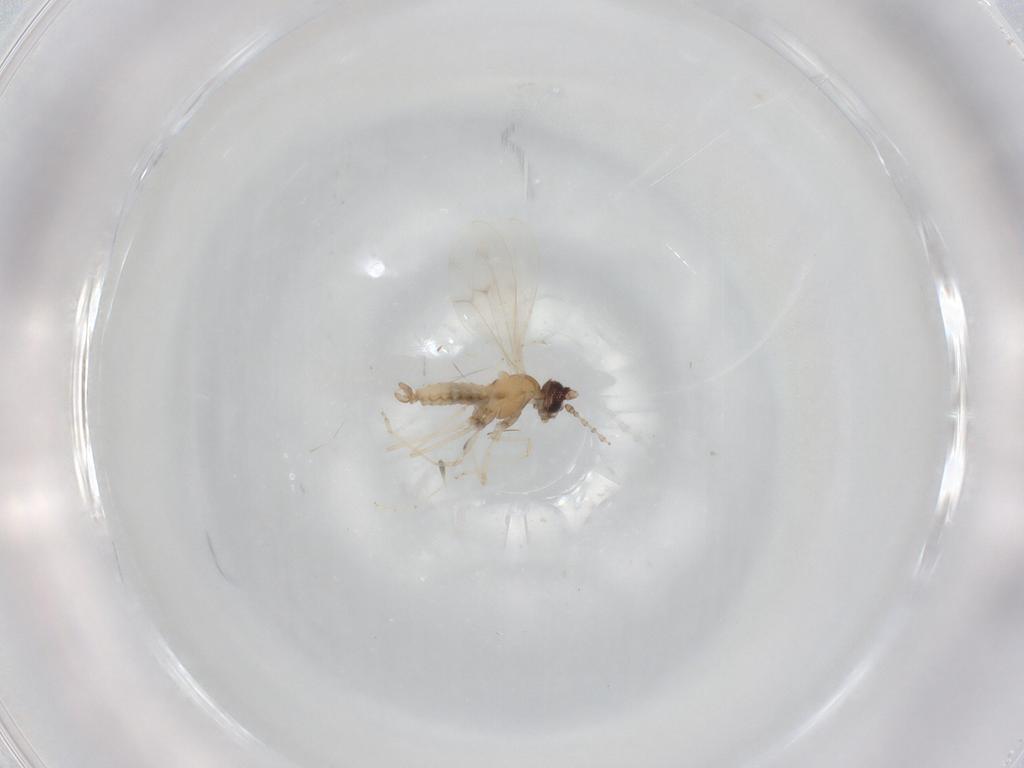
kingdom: Animalia
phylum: Arthropoda
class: Insecta
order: Diptera
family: Cecidomyiidae
